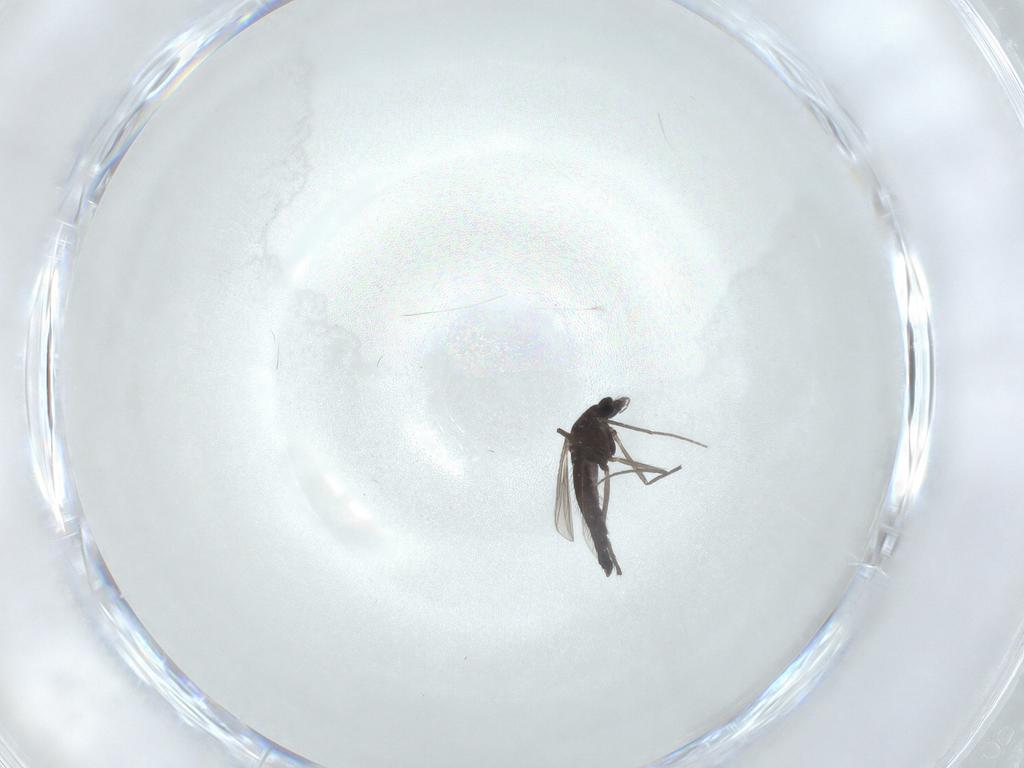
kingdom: Animalia
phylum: Arthropoda
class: Insecta
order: Diptera
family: Chironomidae
